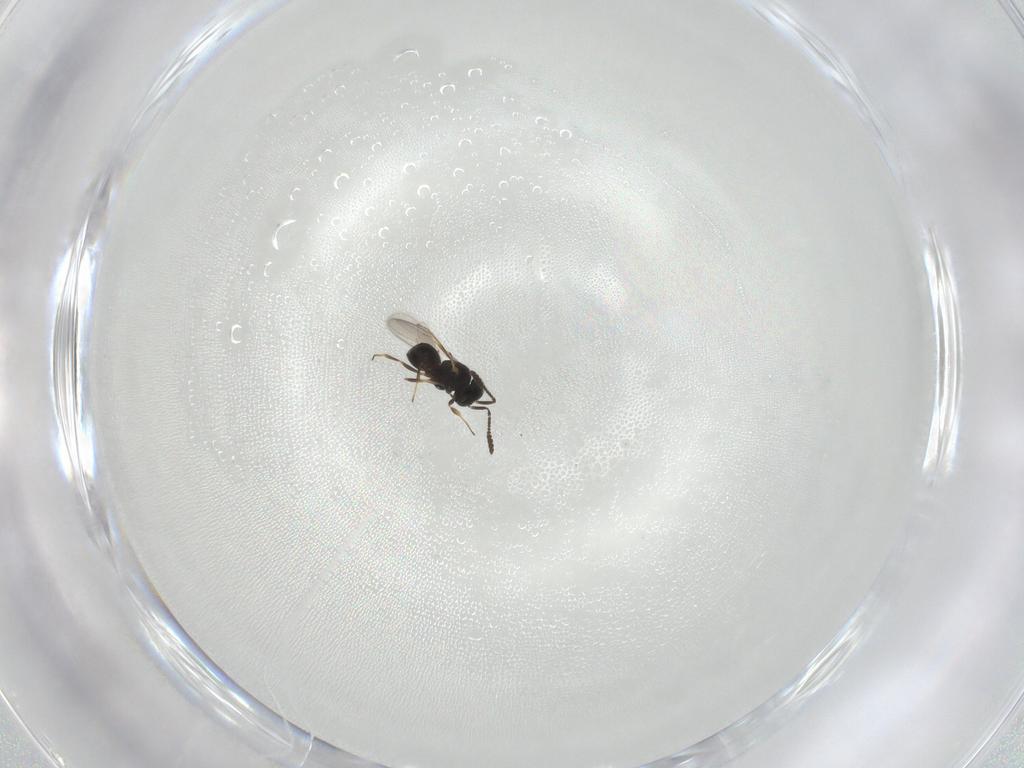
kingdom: Animalia
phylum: Arthropoda
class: Insecta
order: Hymenoptera
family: Scelionidae
